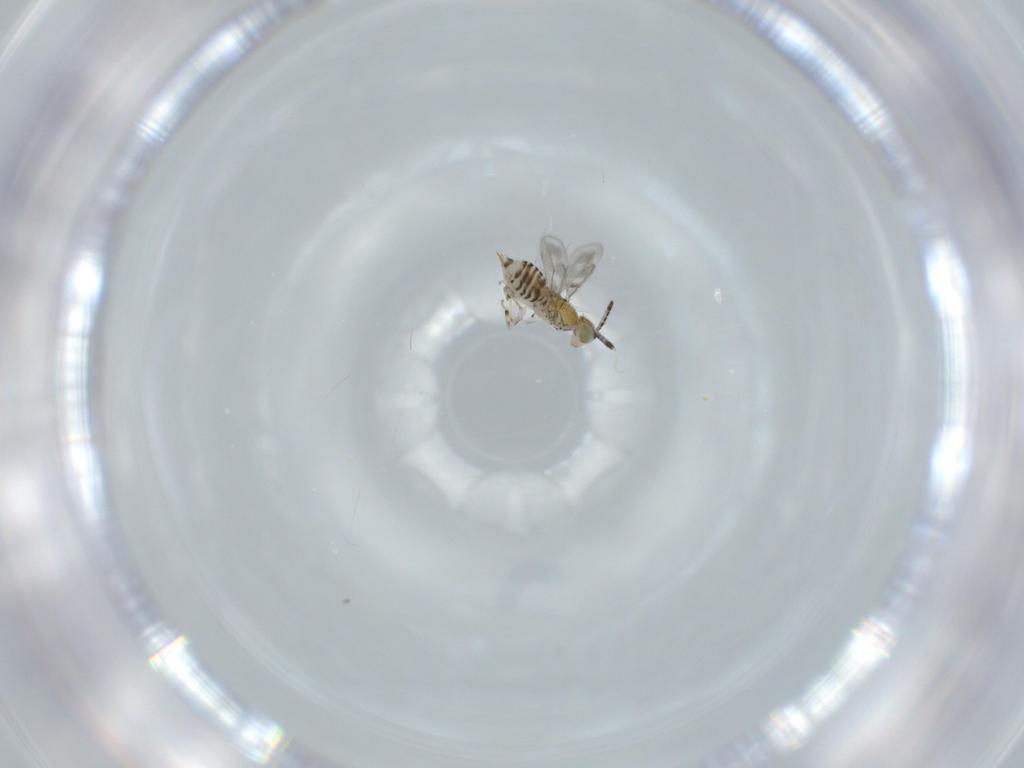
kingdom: Animalia
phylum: Arthropoda
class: Insecta
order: Hymenoptera
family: Aphelinidae
